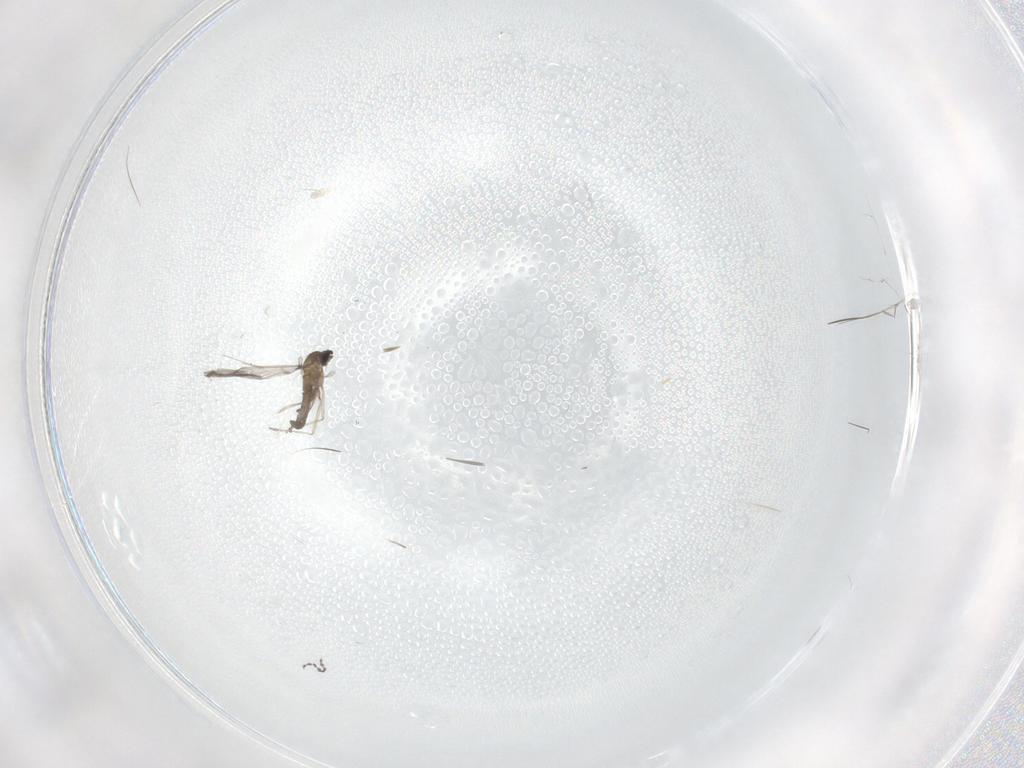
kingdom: Animalia
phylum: Arthropoda
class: Insecta
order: Diptera
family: Cecidomyiidae
